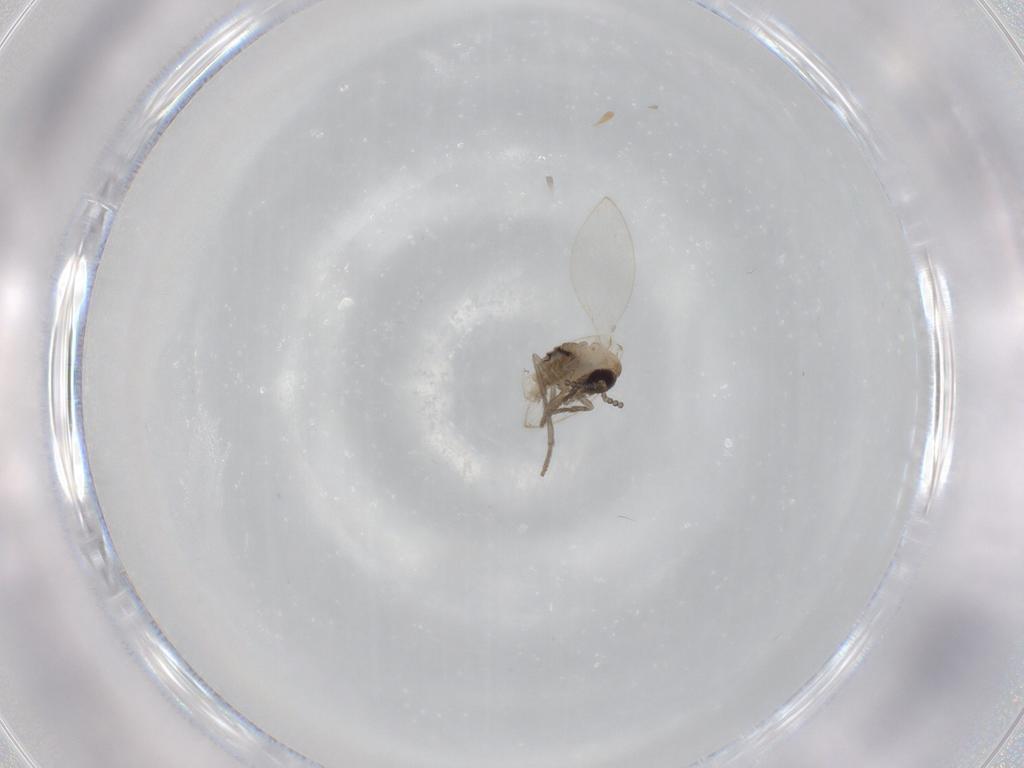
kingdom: Animalia
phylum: Arthropoda
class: Insecta
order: Diptera
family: Psychodidae
